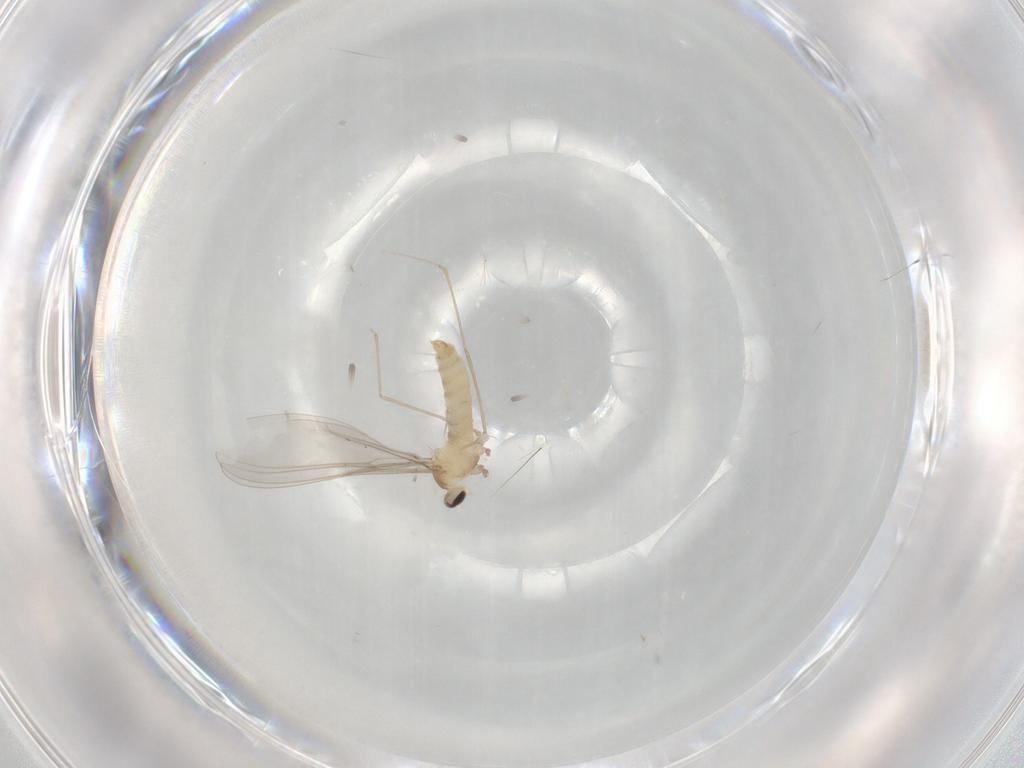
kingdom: Animalia
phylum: Arthropoda
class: Insecta
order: Diptera
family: Cecidomyiidae
